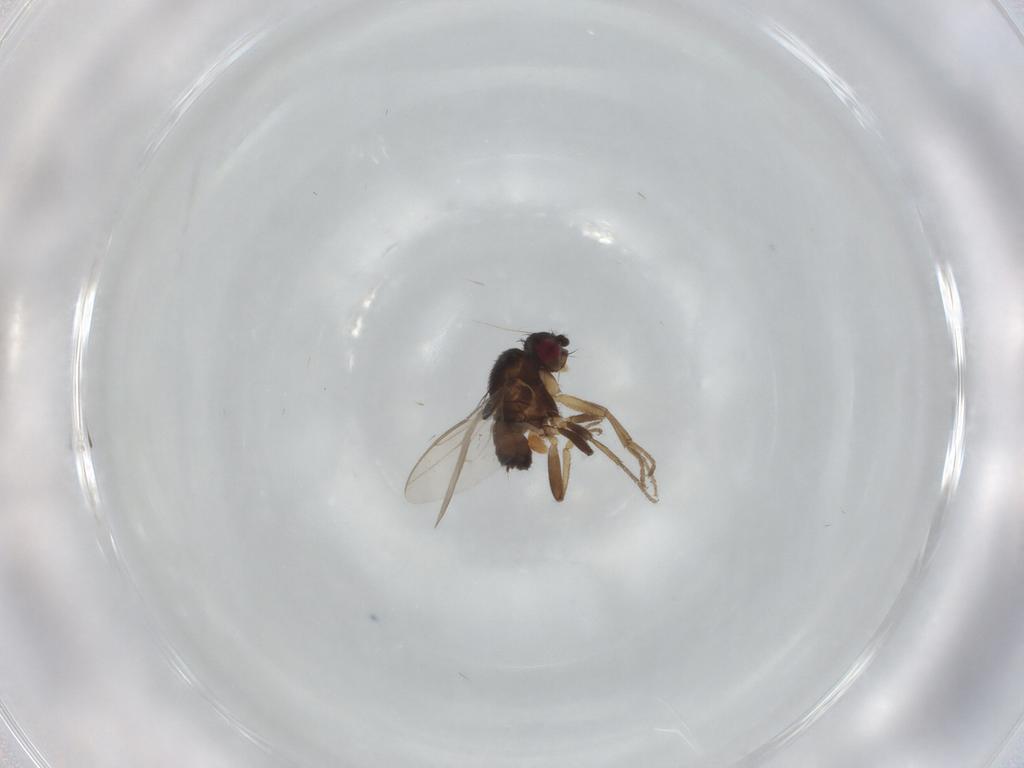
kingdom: Animalia
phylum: Arthropoda
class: Insecta
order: Diptera
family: Sphaeroceridae
